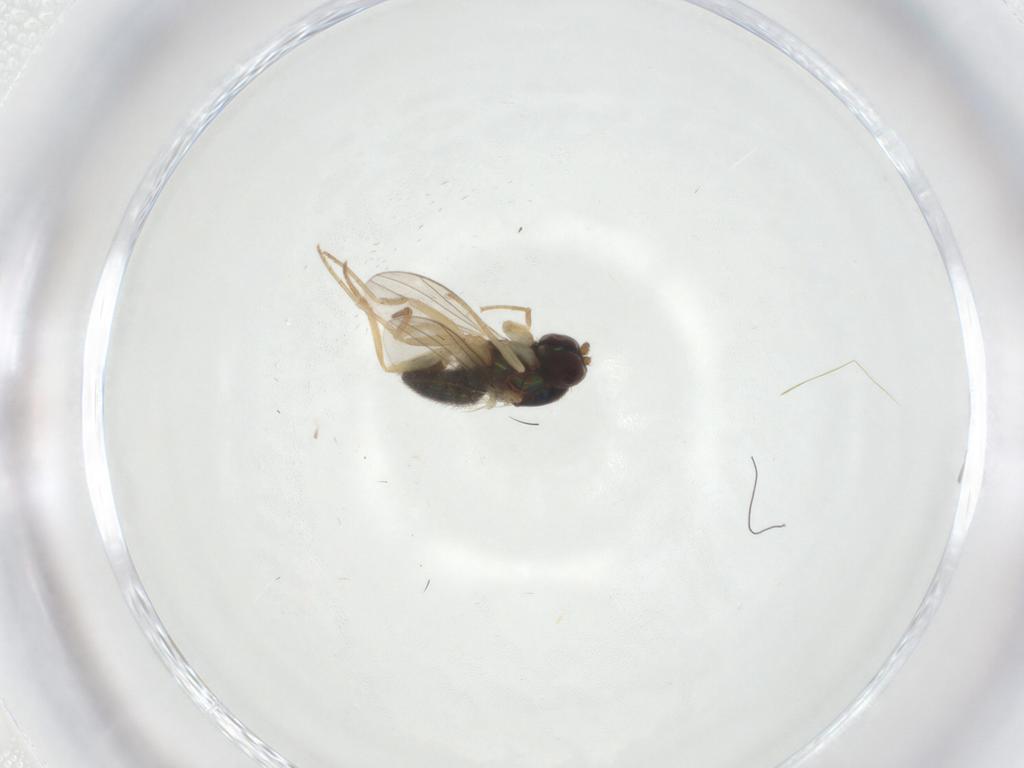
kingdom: Animalia
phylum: Arthropoda
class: Insecta
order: Diptera
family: Dolichopodidae
